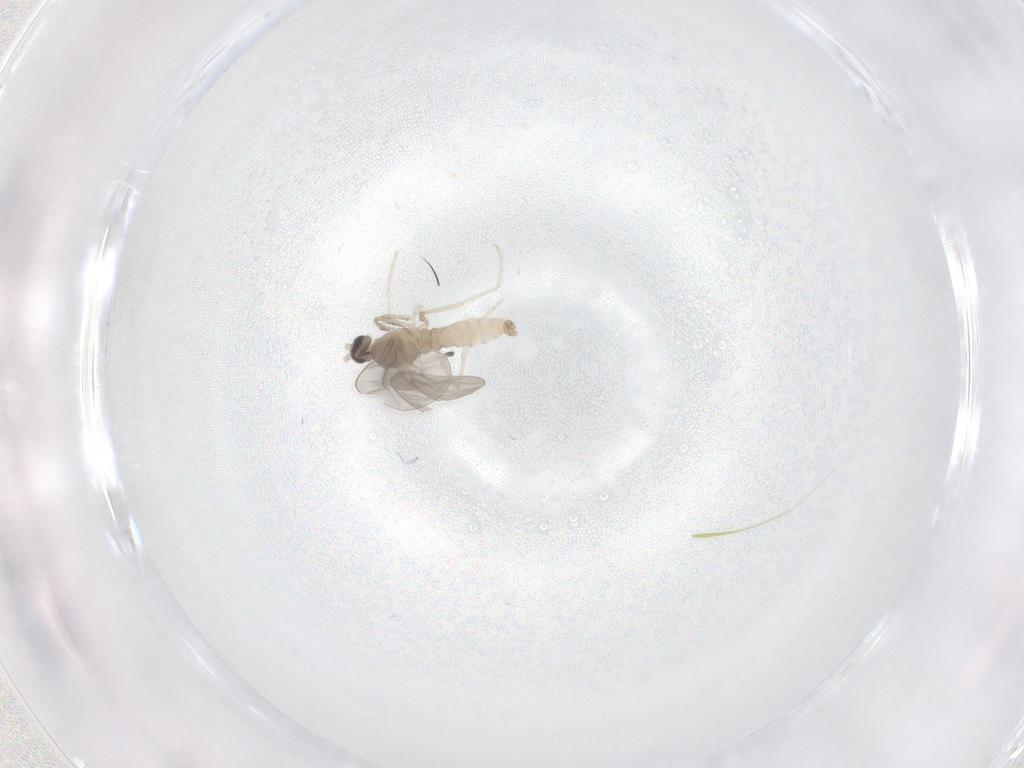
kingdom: Animalia
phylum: Arthropoda
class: Insecta
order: Diptera
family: Cecidomyiidae
